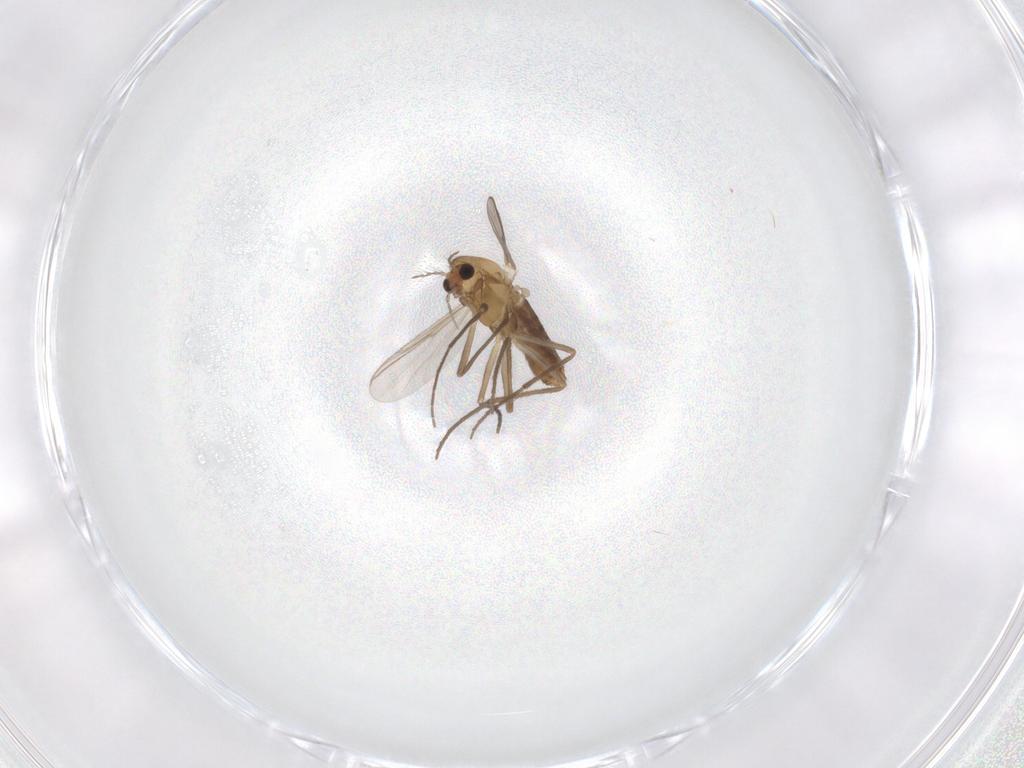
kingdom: Animalia
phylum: Arthropoda
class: Insecta
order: Diptera
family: Chironomidae
